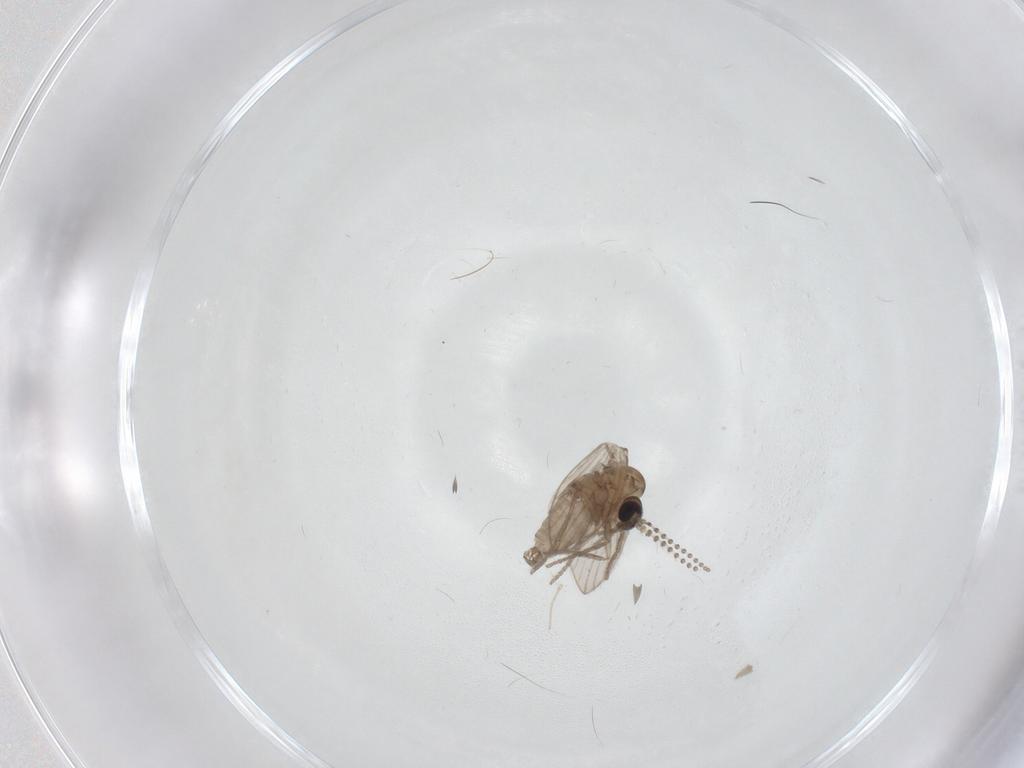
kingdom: Animalia
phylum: Arthropoda
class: Insecta
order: Diptera
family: Psychodidae
